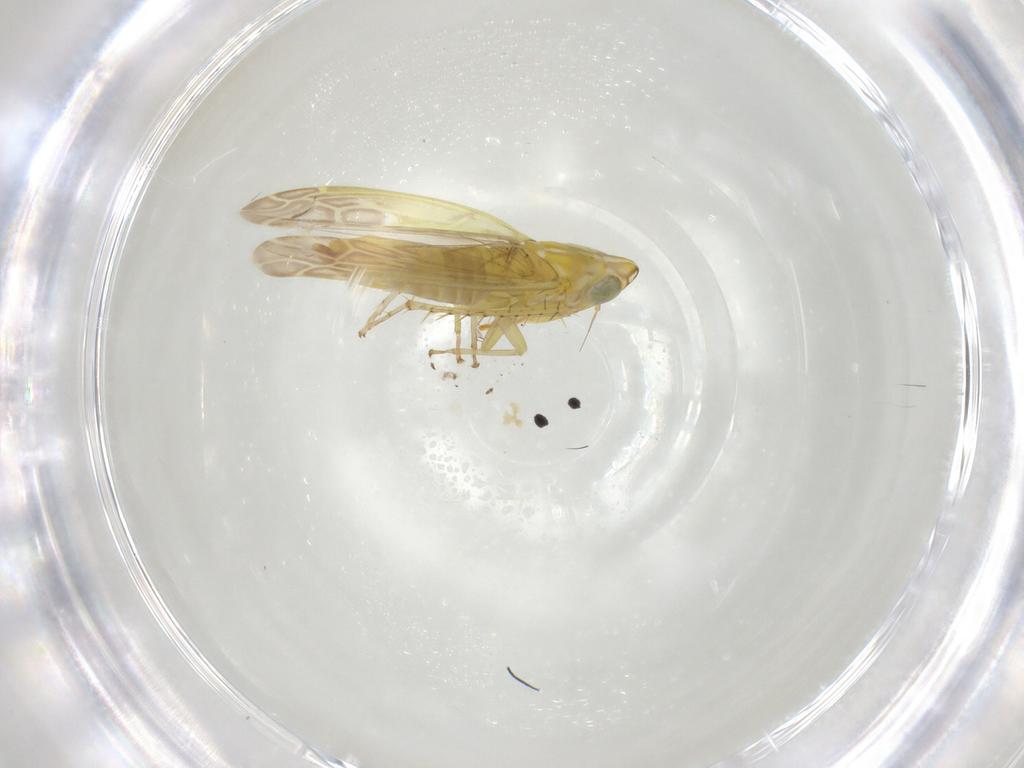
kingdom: Animalia
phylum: Arthropoda
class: Insecta
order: Hemiptera
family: Cicadellidae
